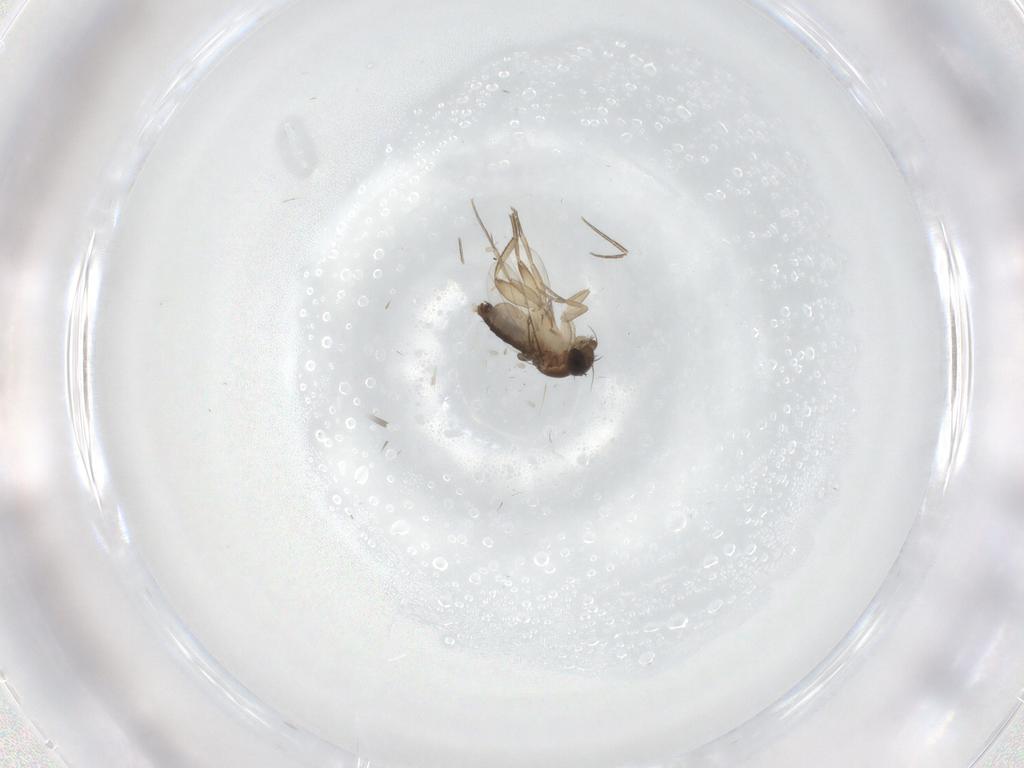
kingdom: Animalia
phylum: Arthropoda
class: Insecta
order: Diptera
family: Phoridae
